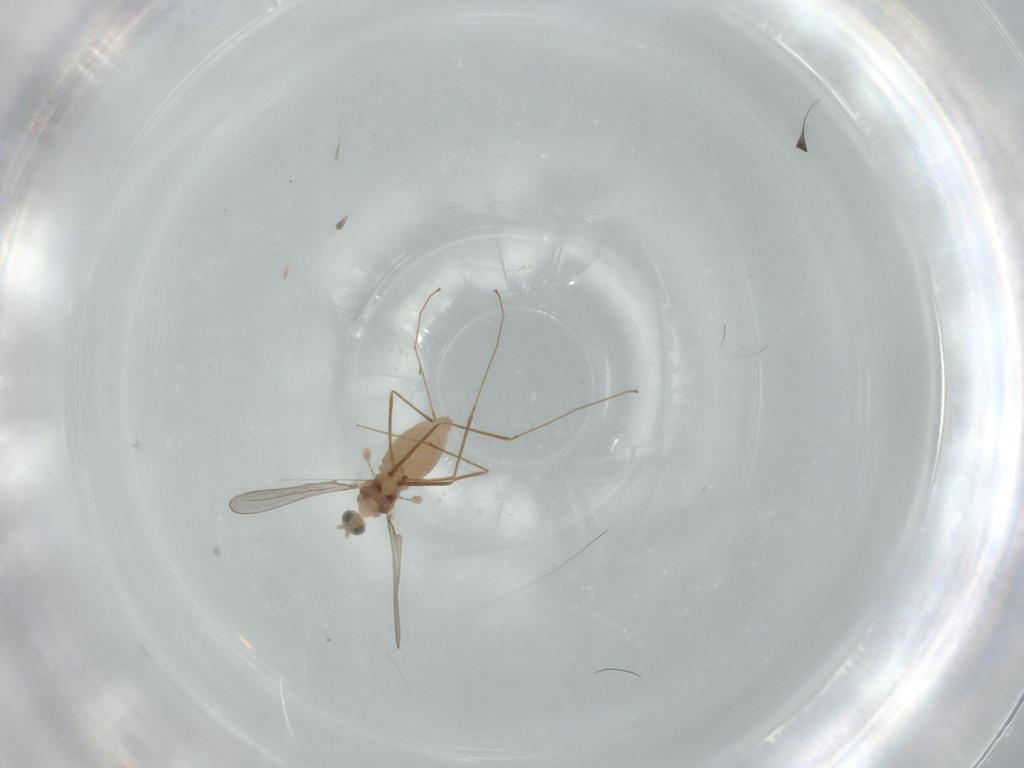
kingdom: Animalia
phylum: Arthropoda
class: Insecta
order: Diptera
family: Cecidomyiidae
